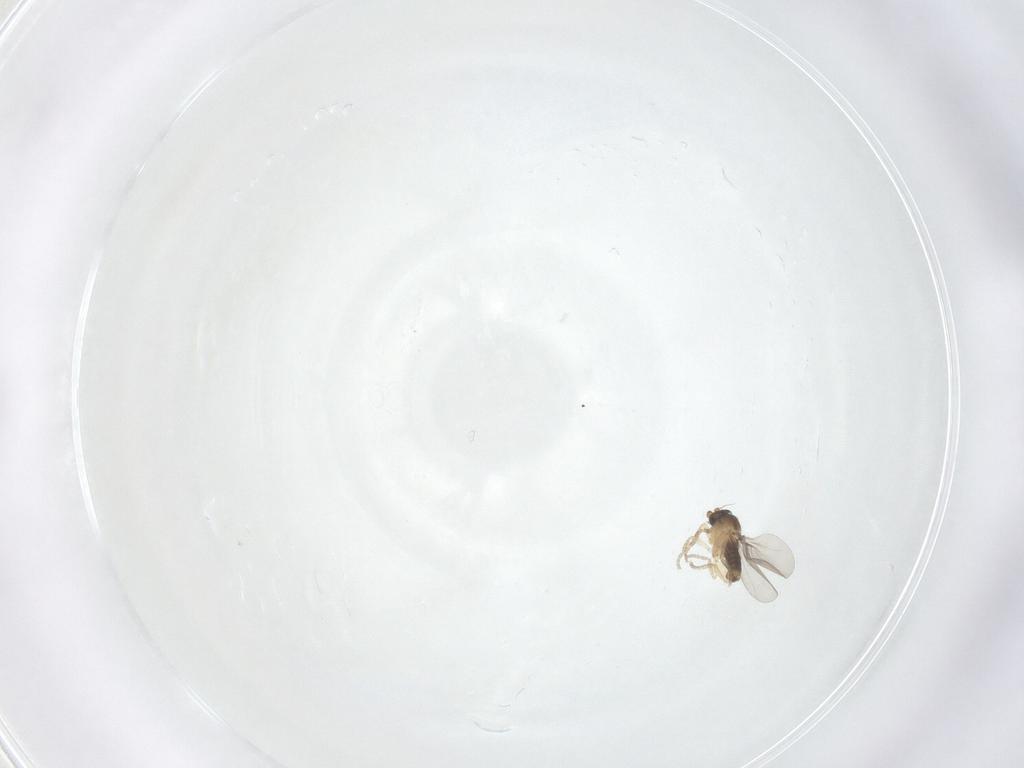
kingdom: Animalia
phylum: Arthropoda
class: Insecta
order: Diptera
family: Phoridae
